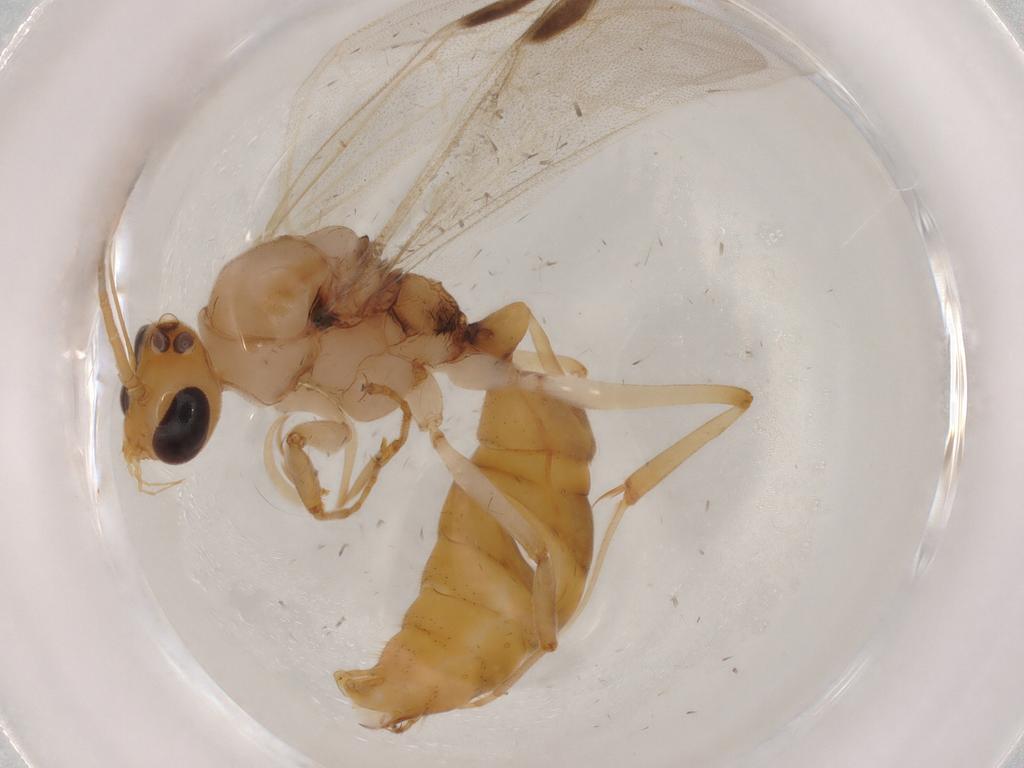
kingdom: Animalia
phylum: Arthropoda
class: Insecta
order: Hymenoptera
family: Formicidae
